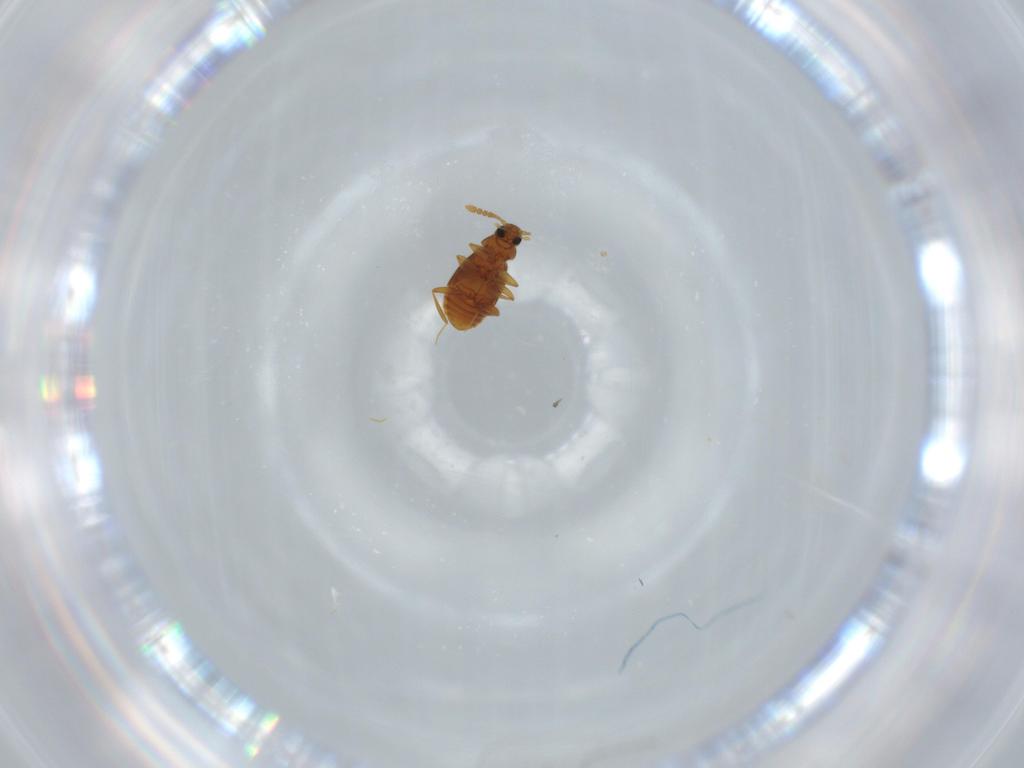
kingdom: Animalia
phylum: Arthropoda
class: Insecta
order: Coleoptera
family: Staphylinidae
